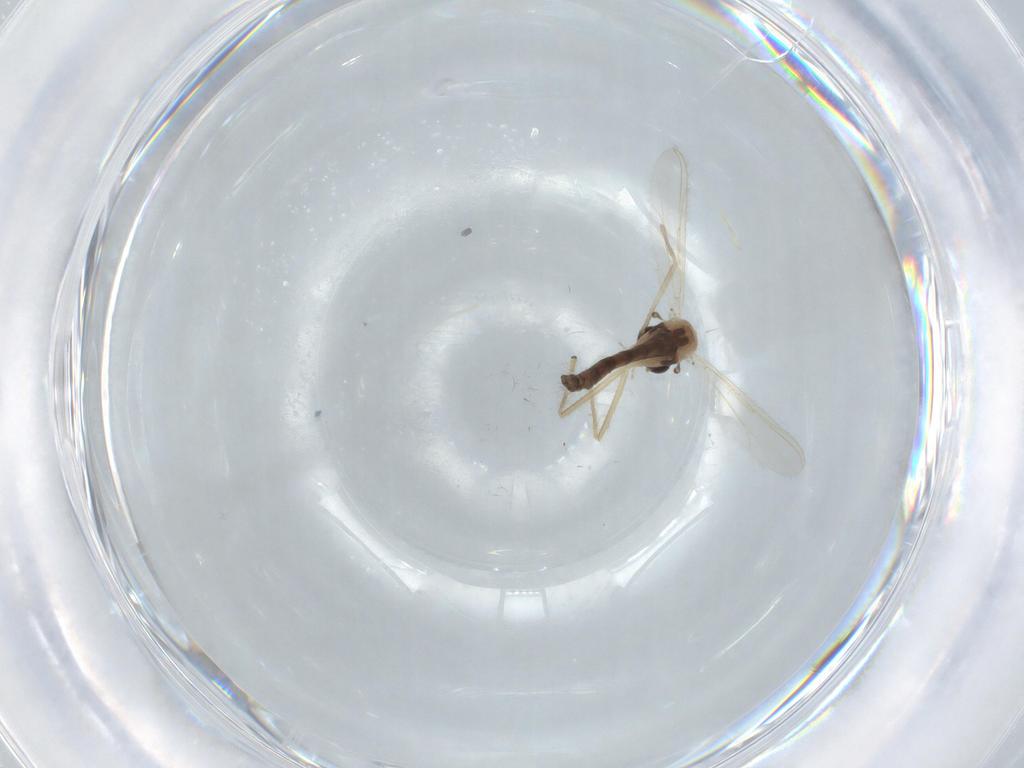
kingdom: Animalia
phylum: Arthropoda
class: Insecta
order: Diptera
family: Chironomidae
